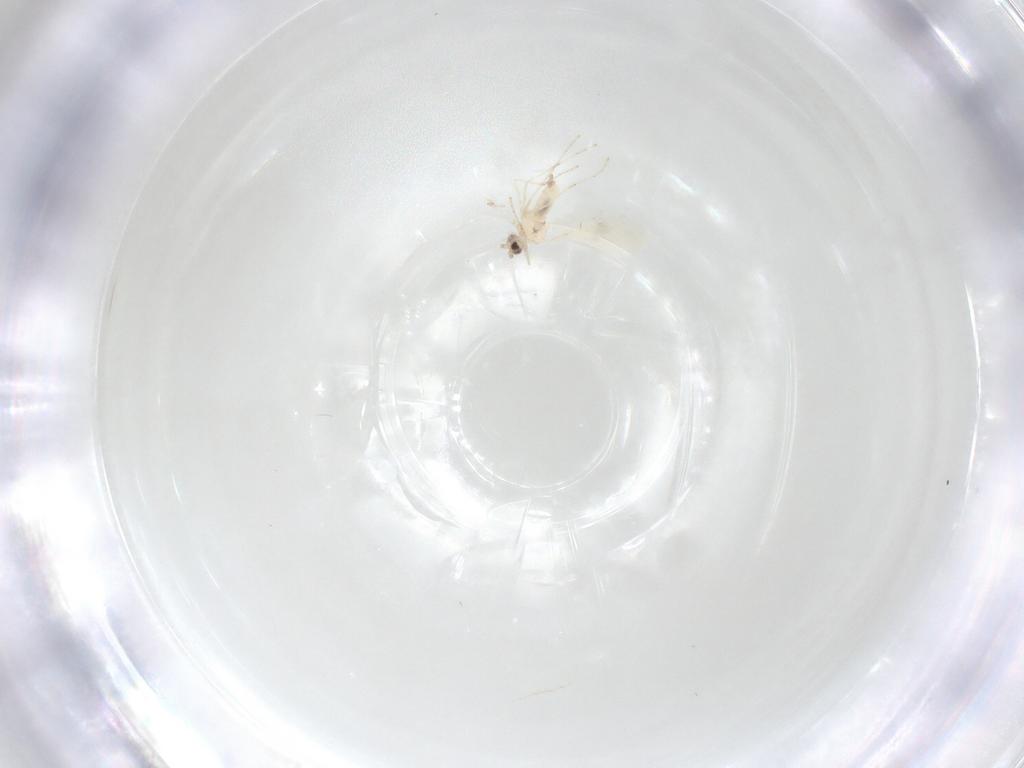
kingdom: Animalia
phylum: Arthropoda
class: Insecta
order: Diptera
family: Cecidomyiidae
